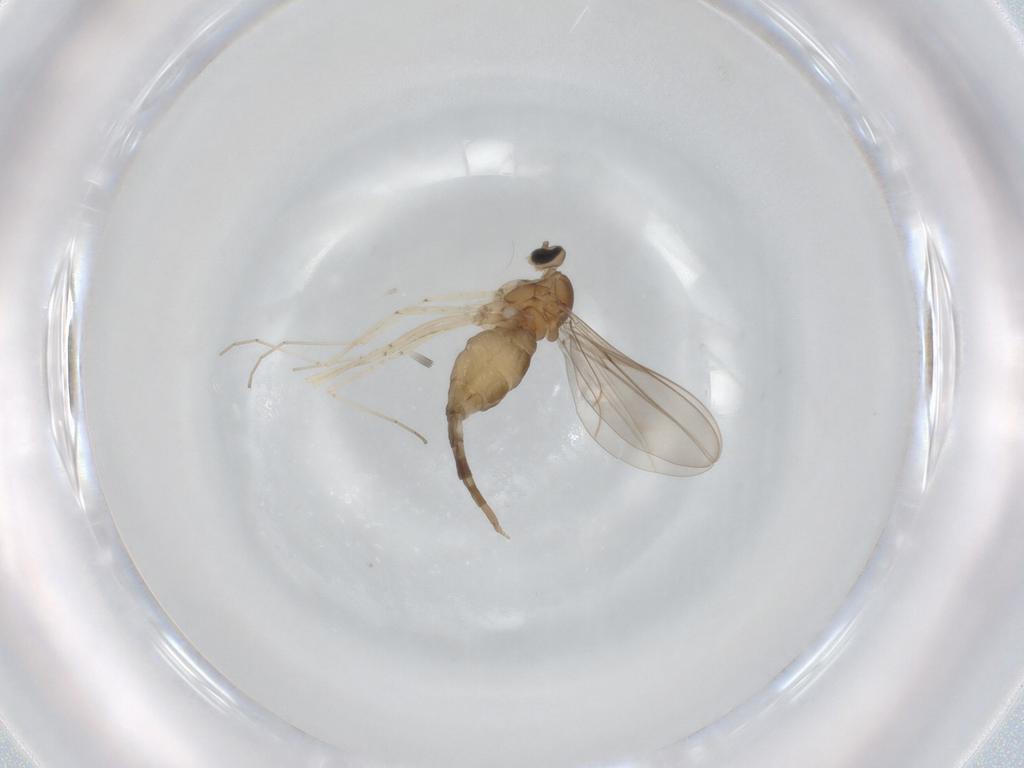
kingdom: Animalia
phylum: Arthropoda
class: Insecta
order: Diptera
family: Cecidomyiidae
